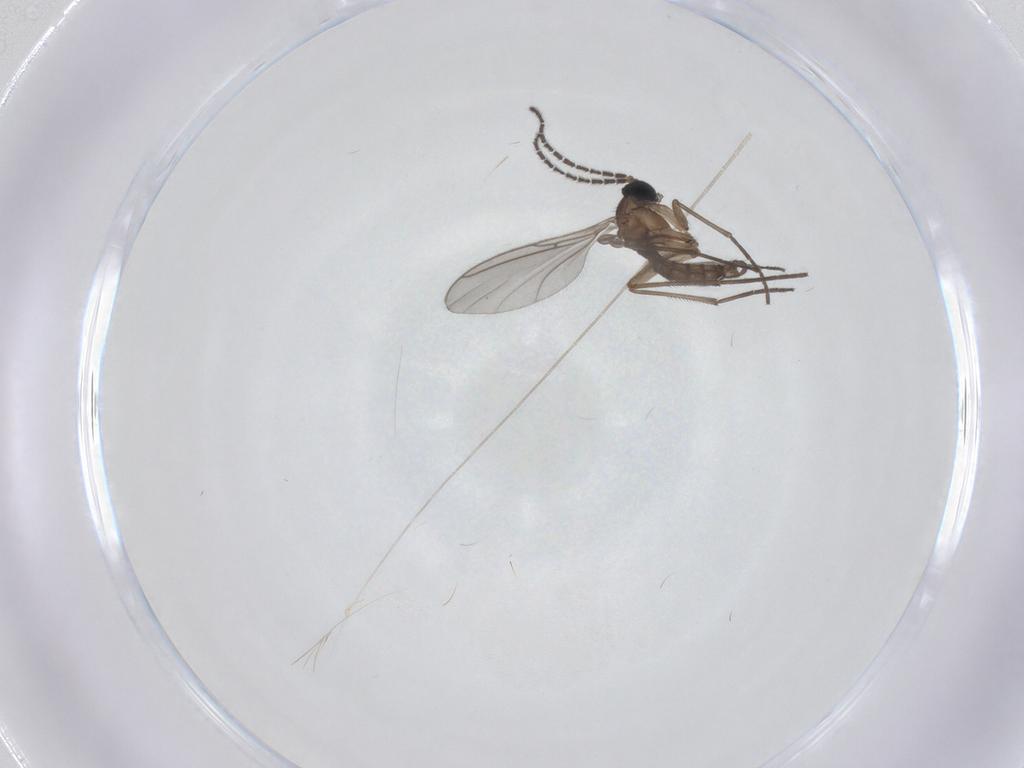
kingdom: Animalia
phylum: Arthropoda
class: Insecta
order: Diptera
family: Sciaridae
